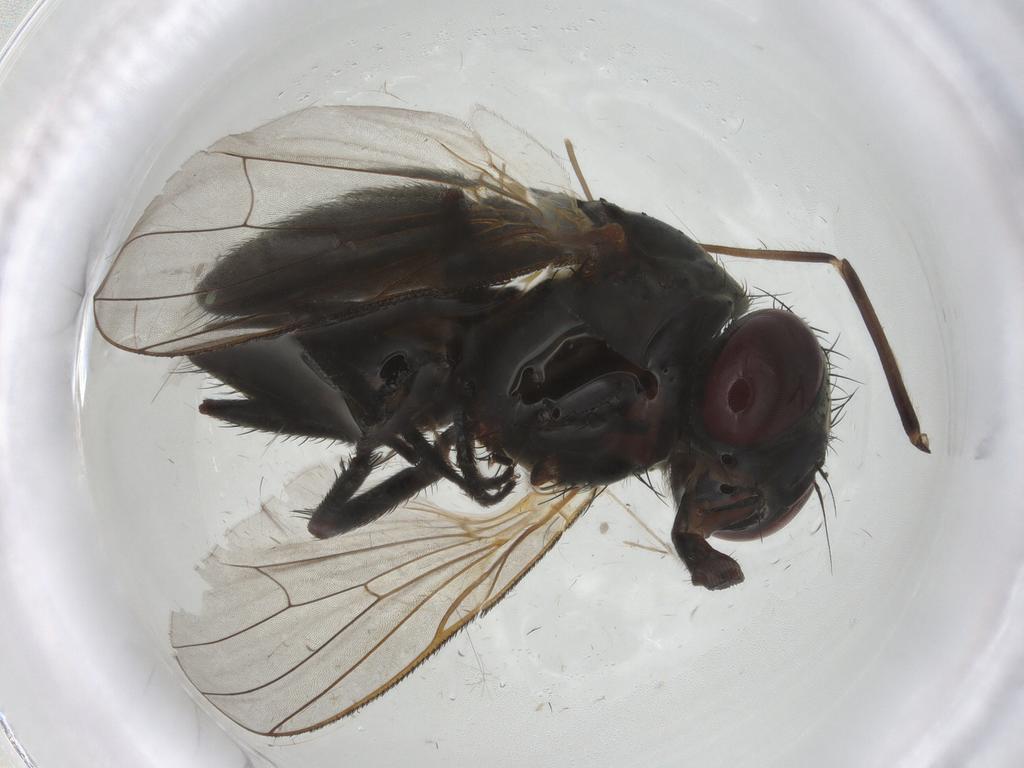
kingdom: Animalia
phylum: Arthropoda
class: Insecta
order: Diptera
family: Fannia
